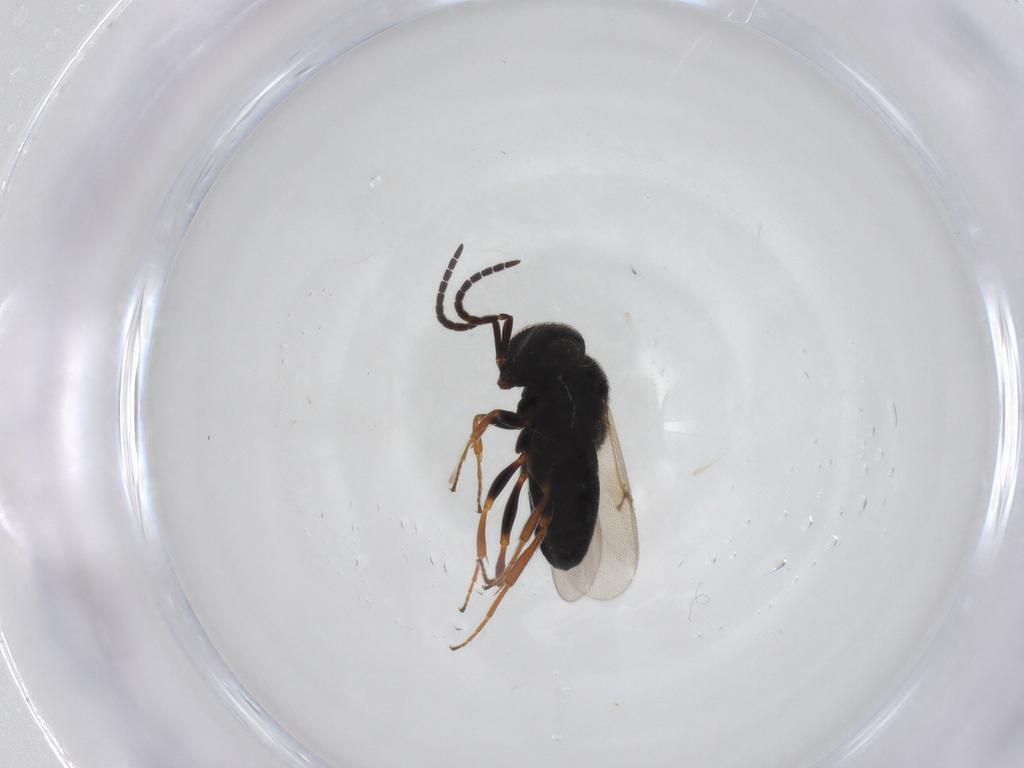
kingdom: Animalia
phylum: Arthropoda
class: Insecta
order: Hymenoptera
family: Scelionidae
